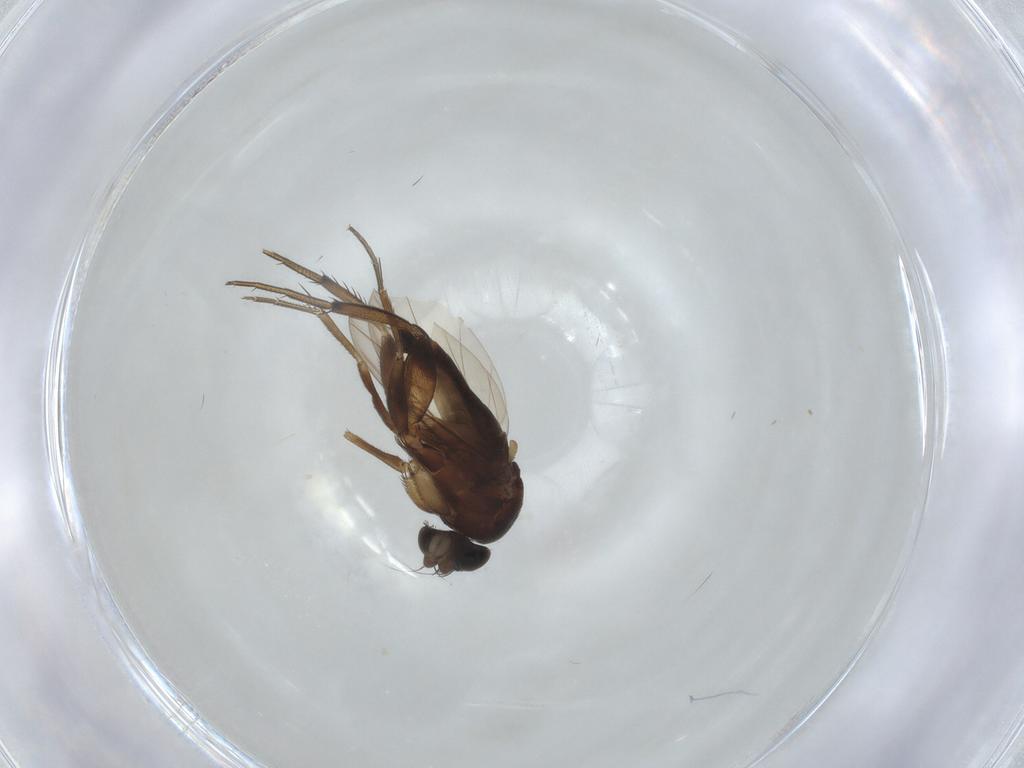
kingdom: Animalia
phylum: Arthropoda
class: Insecta
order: Diptera
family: Phoridae
